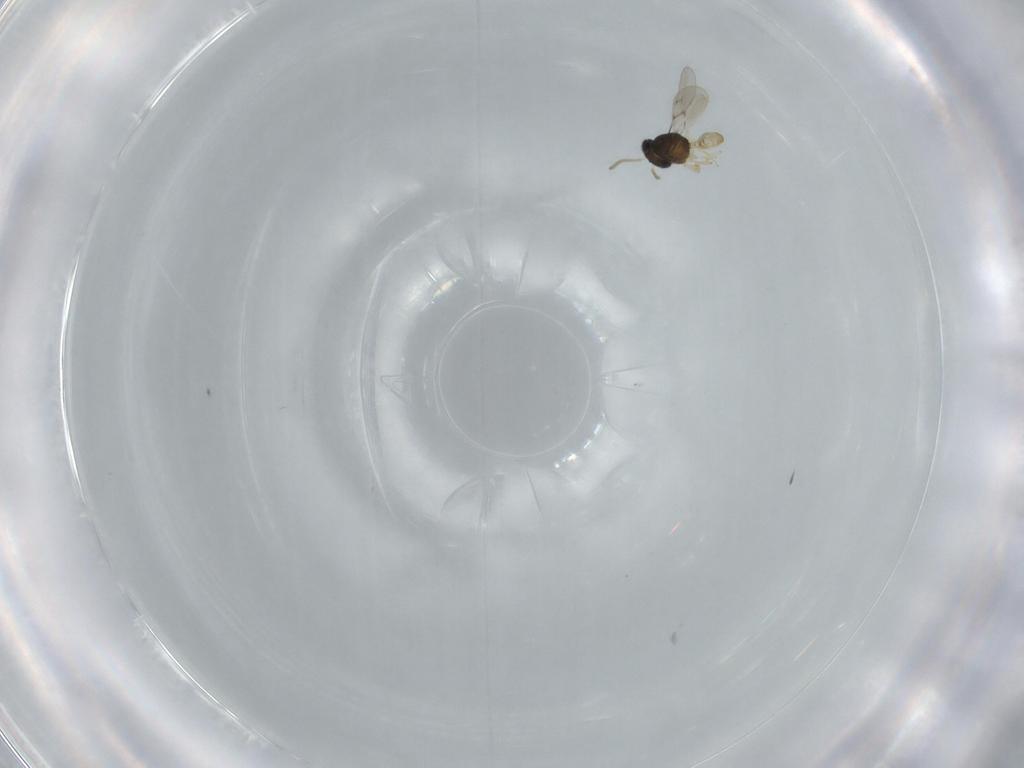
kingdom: Animalia
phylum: Arthropoda
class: Insecta
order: Hymenoptera
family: Scelionidae
